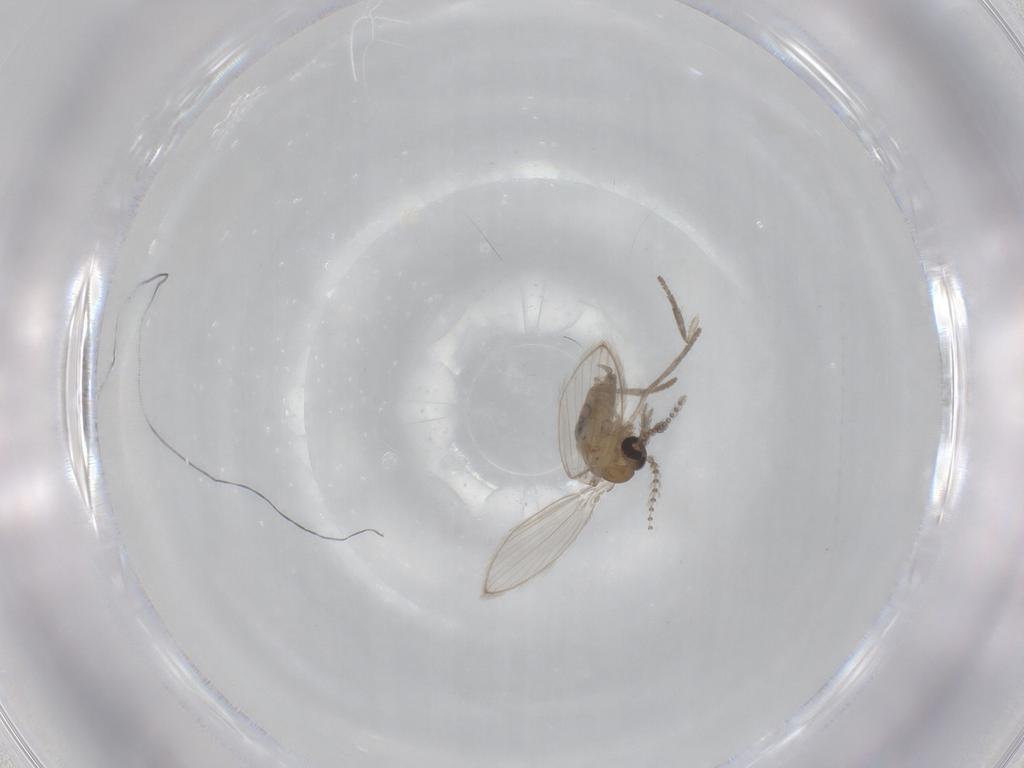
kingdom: Animalia
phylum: Arthropoda
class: Insecta
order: Diptera
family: Psychodidae
